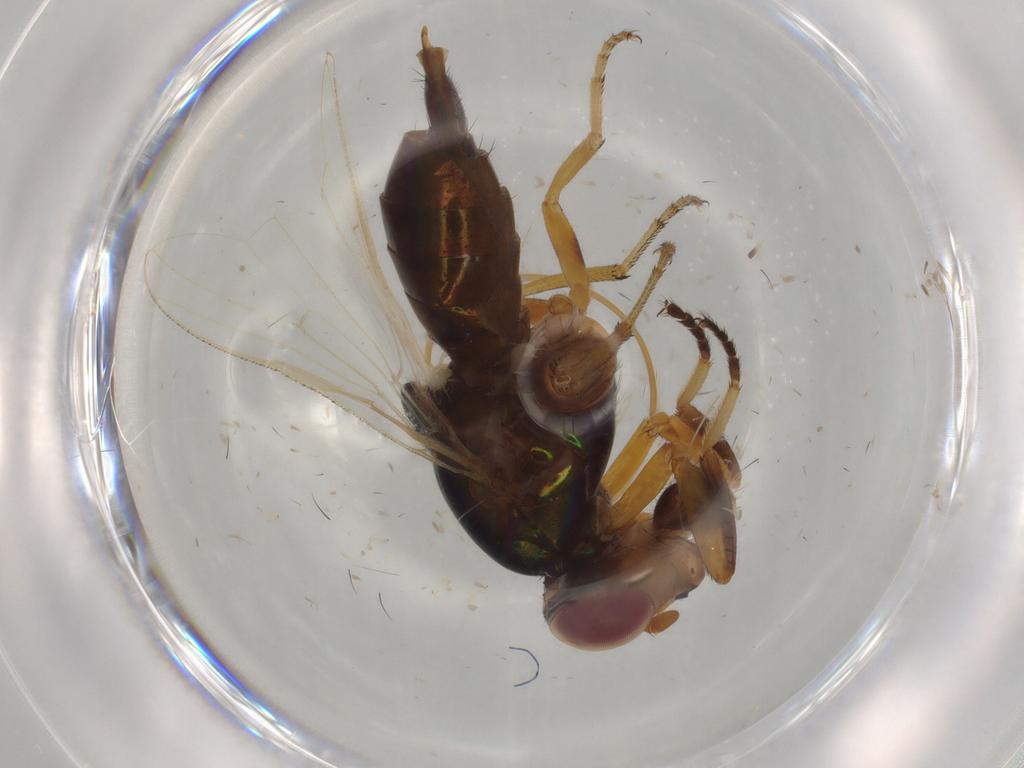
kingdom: Animalia
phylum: Arthropoda
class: Insecta
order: Diptera
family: Ulidiidae
